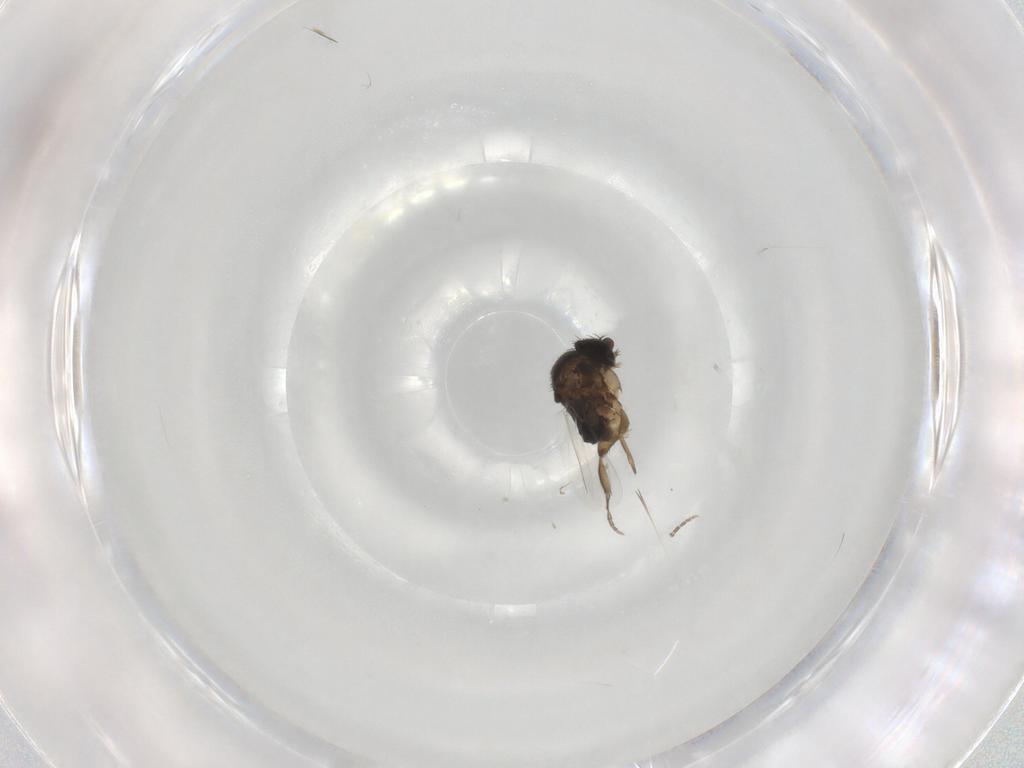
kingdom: Animalia
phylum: Arthropoda
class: Insecta
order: Diptera
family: Phoridae
